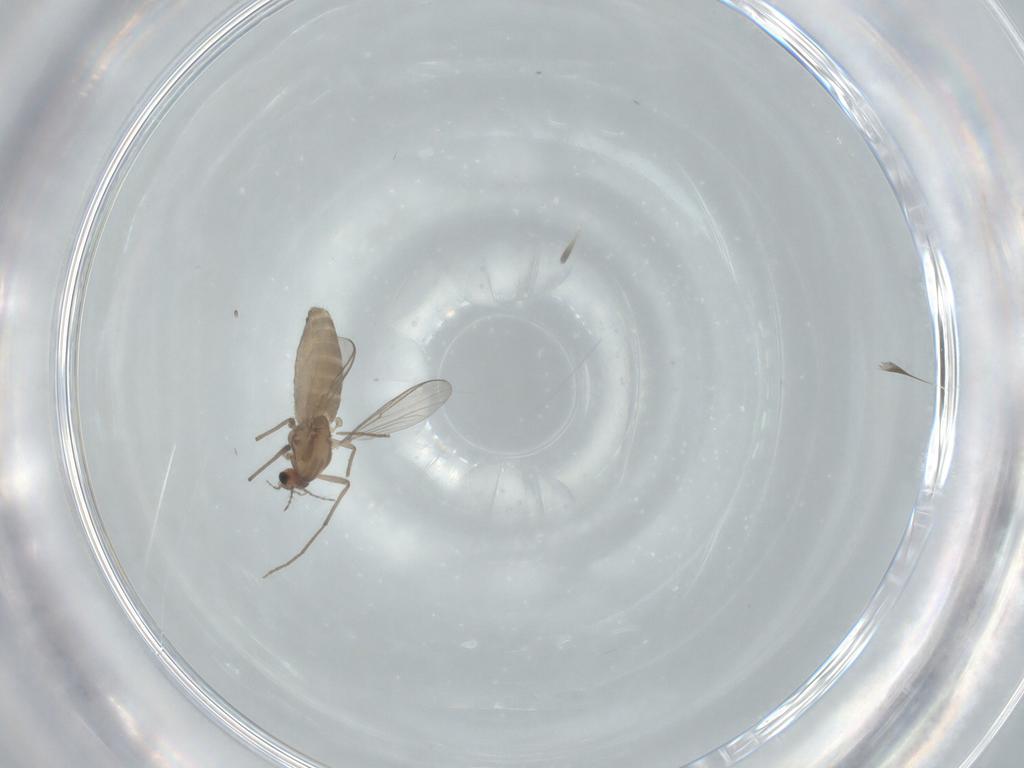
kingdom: Animalia
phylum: Arthropoda
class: Insecta
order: Diptera
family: Chironomidae
